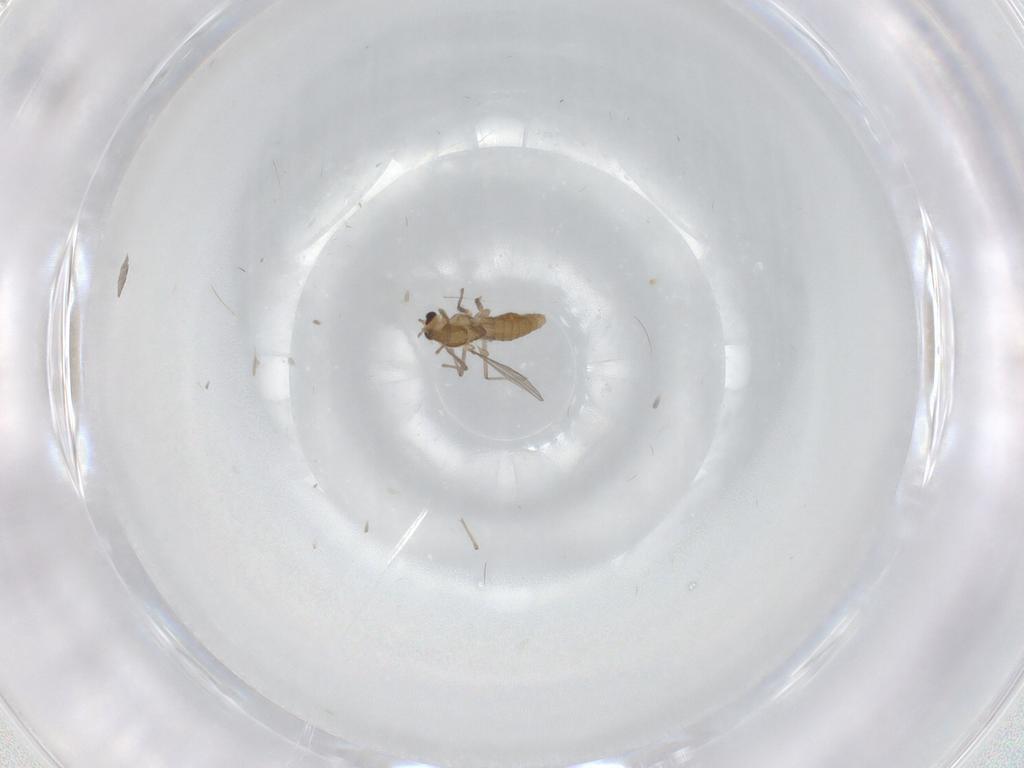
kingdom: Animalia
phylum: Arthropoda
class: Insecta
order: Diptera
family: Chironomidae
